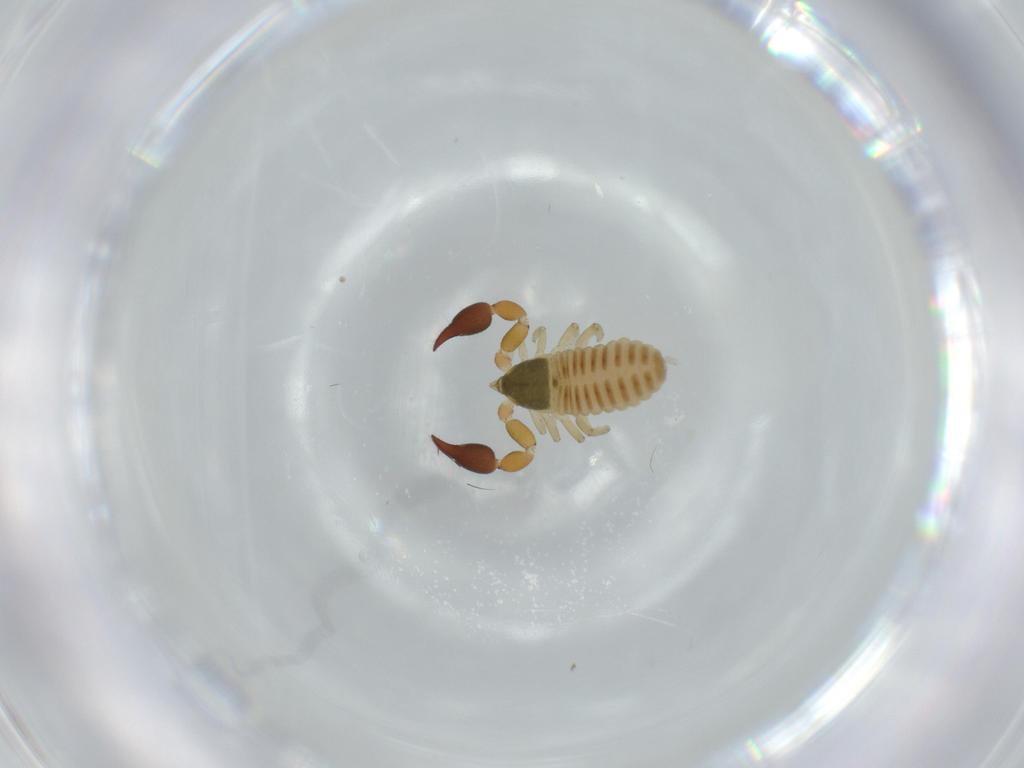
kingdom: Animalia
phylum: Arthropoda
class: Arachnida
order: Pseudoscorpiones
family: Chernetidae
